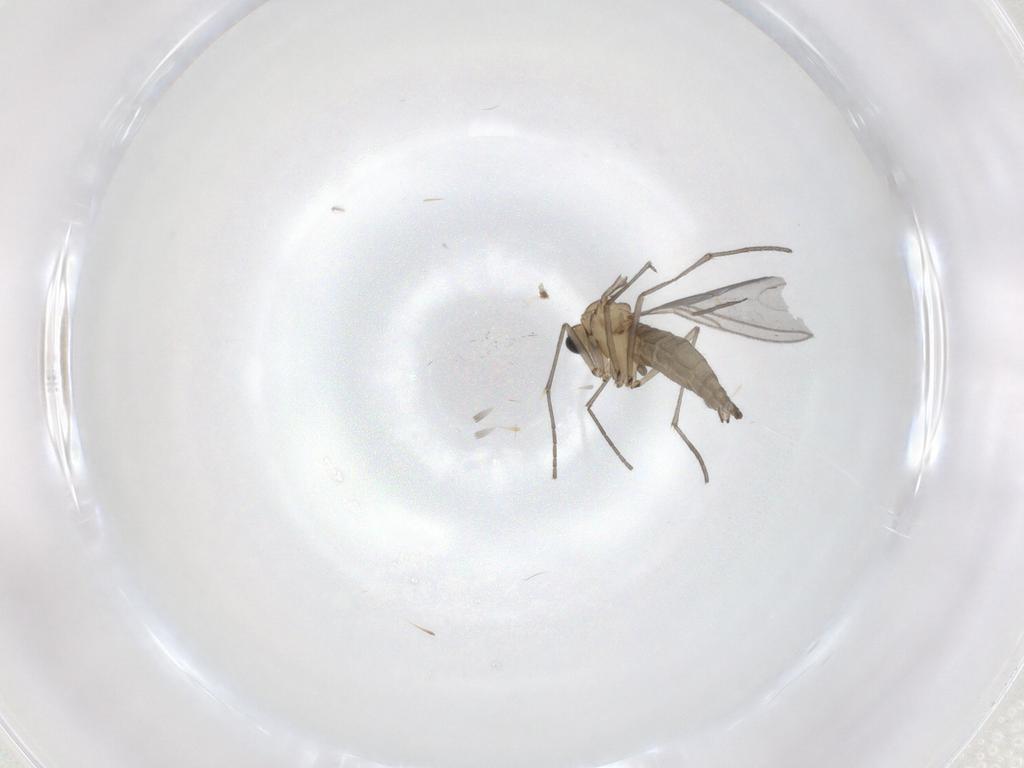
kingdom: Animalia
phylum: Arthropoda
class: Insecta
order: Diptera
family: Sciaridae
